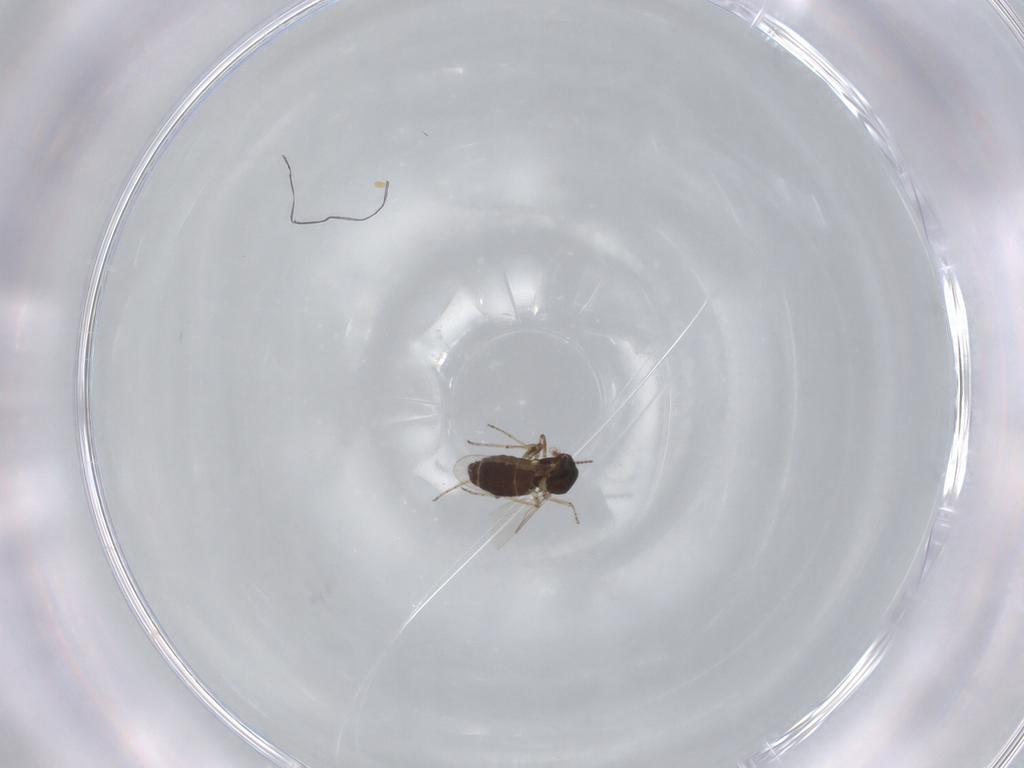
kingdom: Animalia
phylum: Arthropoda
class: Insecta
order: Diptera
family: Ceratopogonidae
